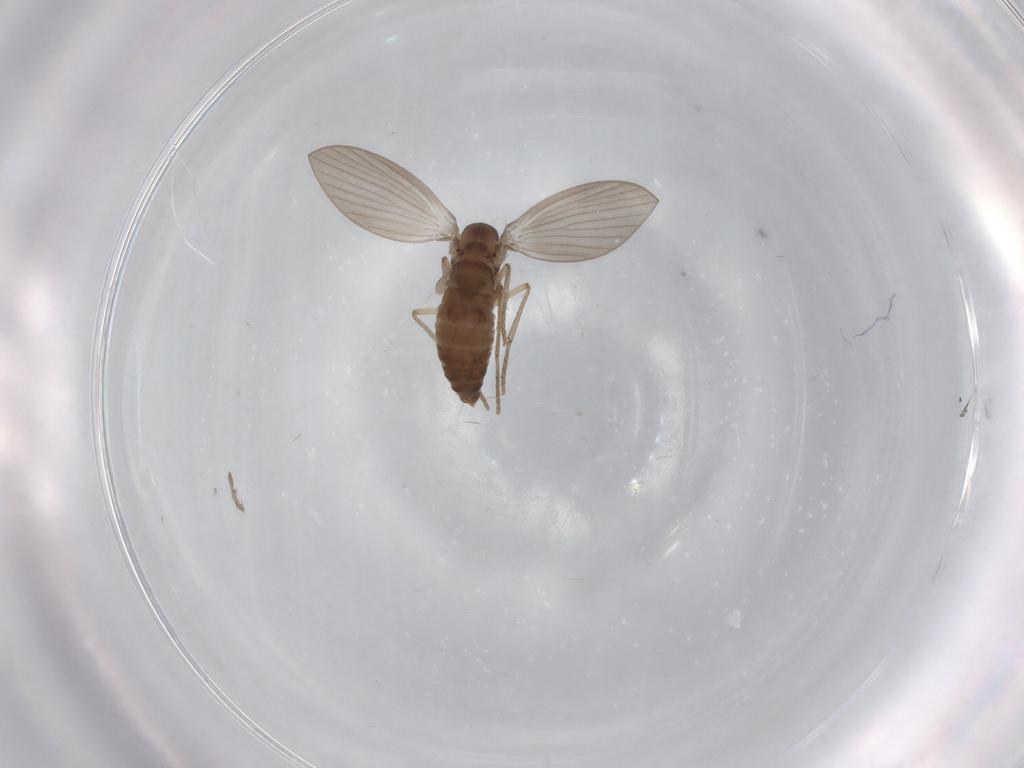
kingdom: Animalia
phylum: Arthropoda
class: Insecta
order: Diptera
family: Psychodidae
